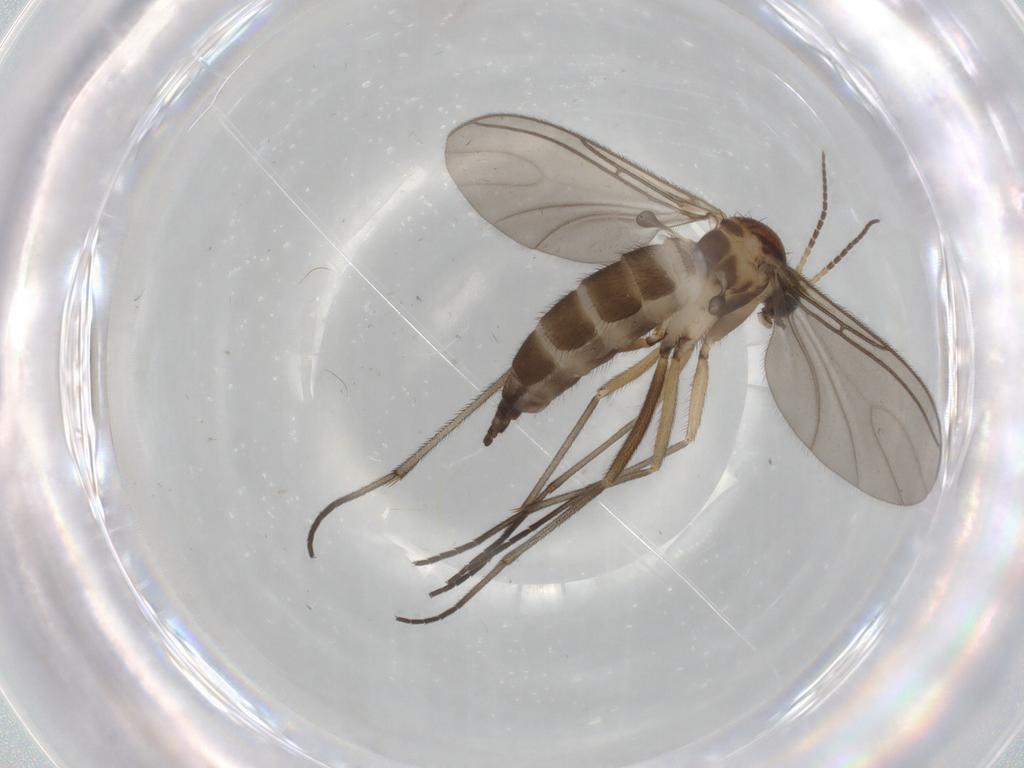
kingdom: Animalia
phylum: Arthropoda
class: Insecta
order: Diptera
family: Sciaridae
